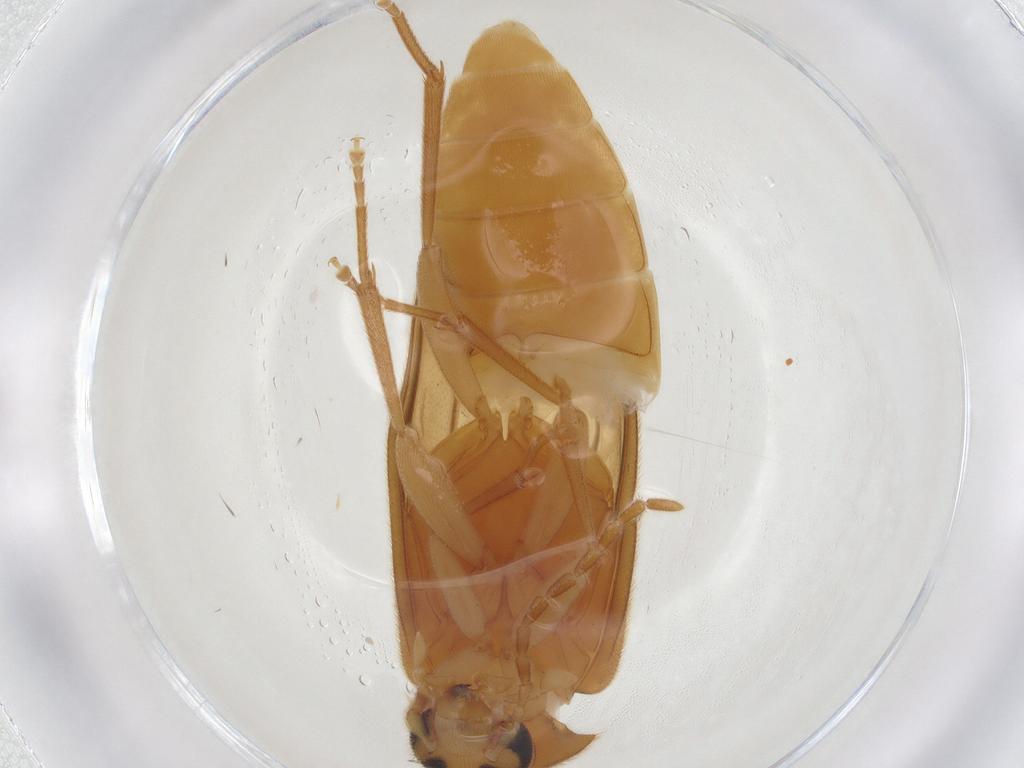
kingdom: Animalia
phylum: Arthropoda
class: Insecta
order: Coleoptera
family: Scraptiidae
